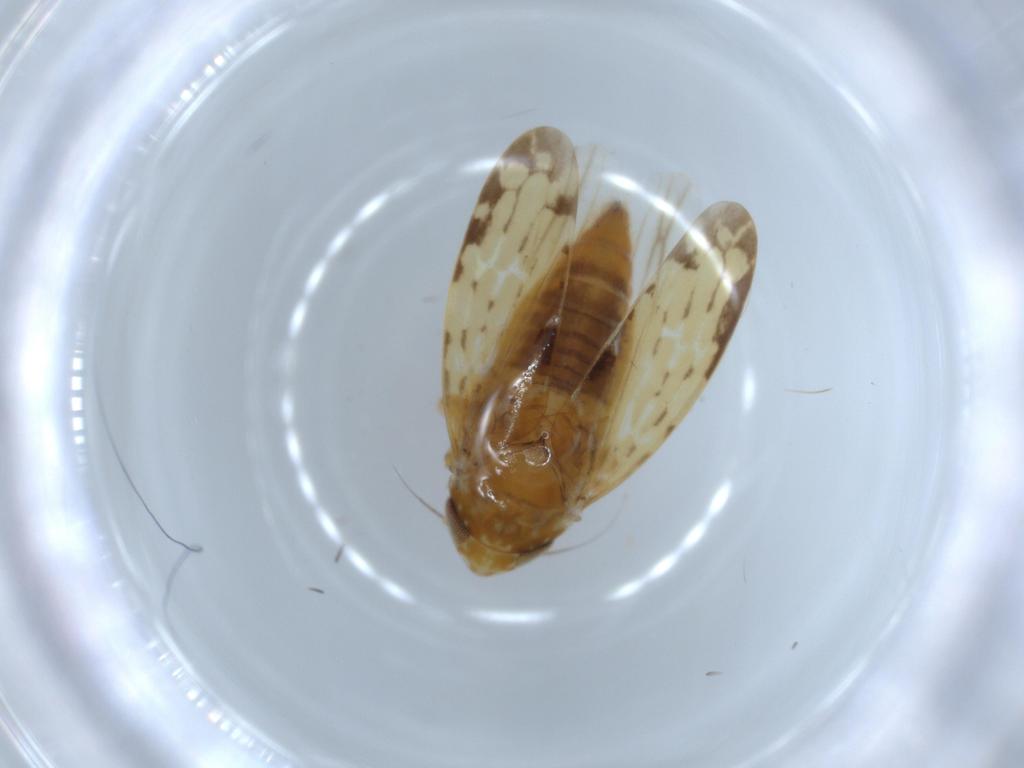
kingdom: Animalia
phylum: Arthropoda
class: Insecta
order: Hemiptera
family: Cicadellidae
